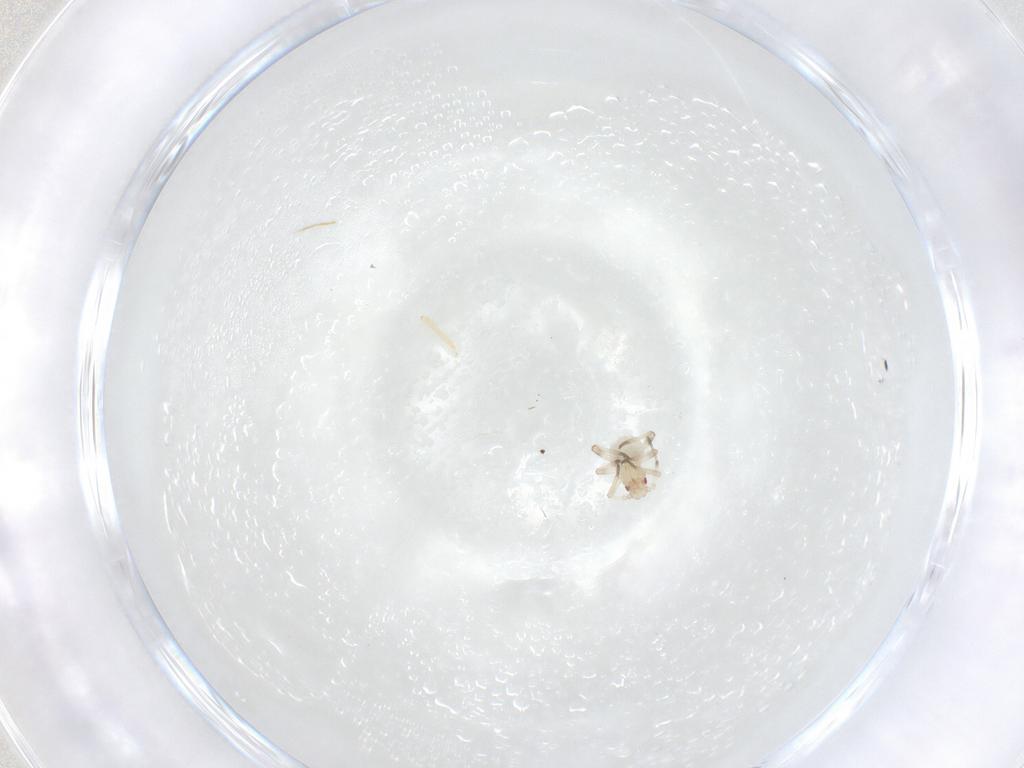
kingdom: Animalia
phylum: Arthropoda
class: Insecta
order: Hemiptera
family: Aphididae
